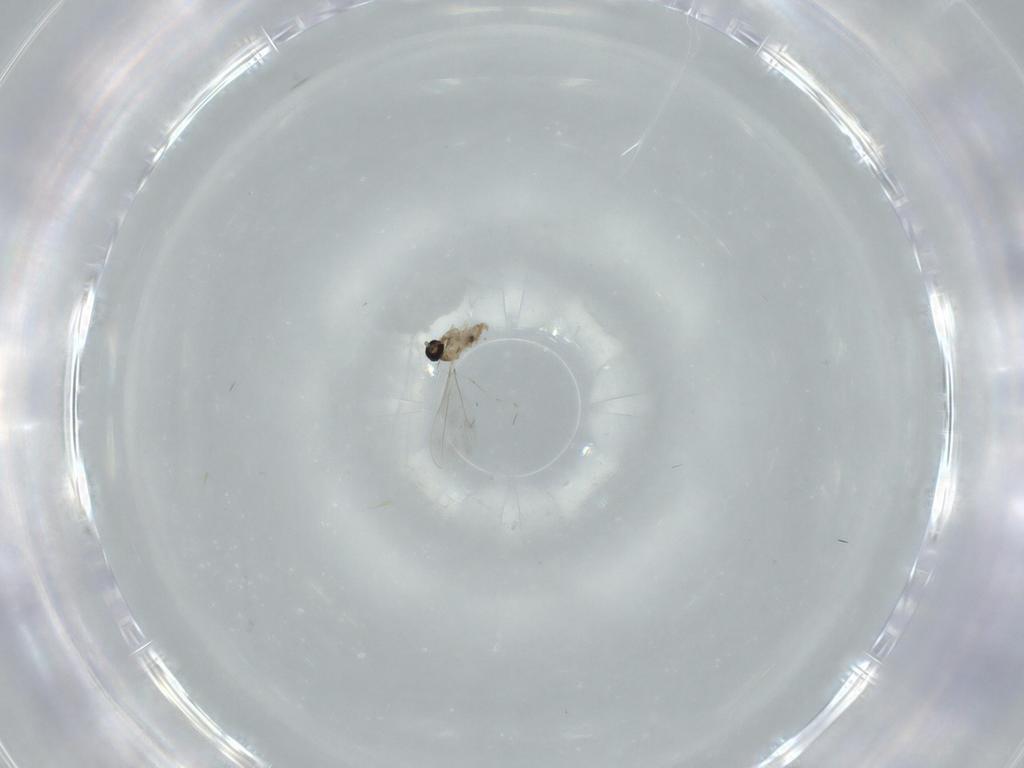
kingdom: Animalia
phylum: Arthropoda
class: Insecta
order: Diptera
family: Cecidomyiidae
